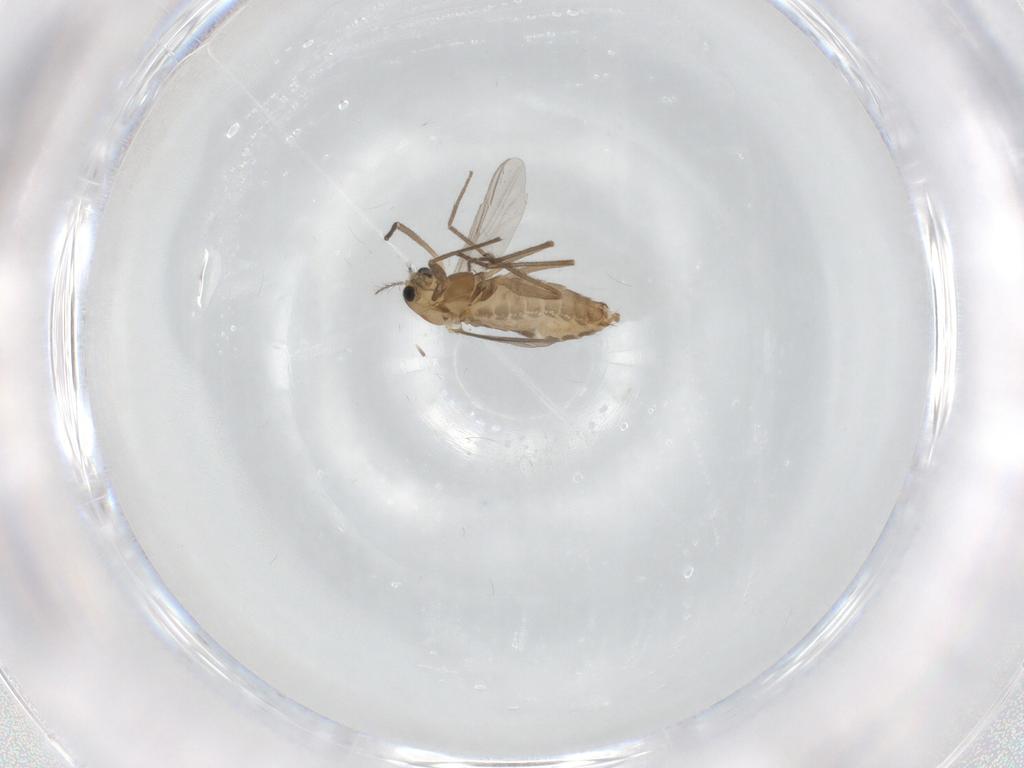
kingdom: Animalia
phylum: Arthropoda
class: Insecta
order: Diptera
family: Chironomidae
